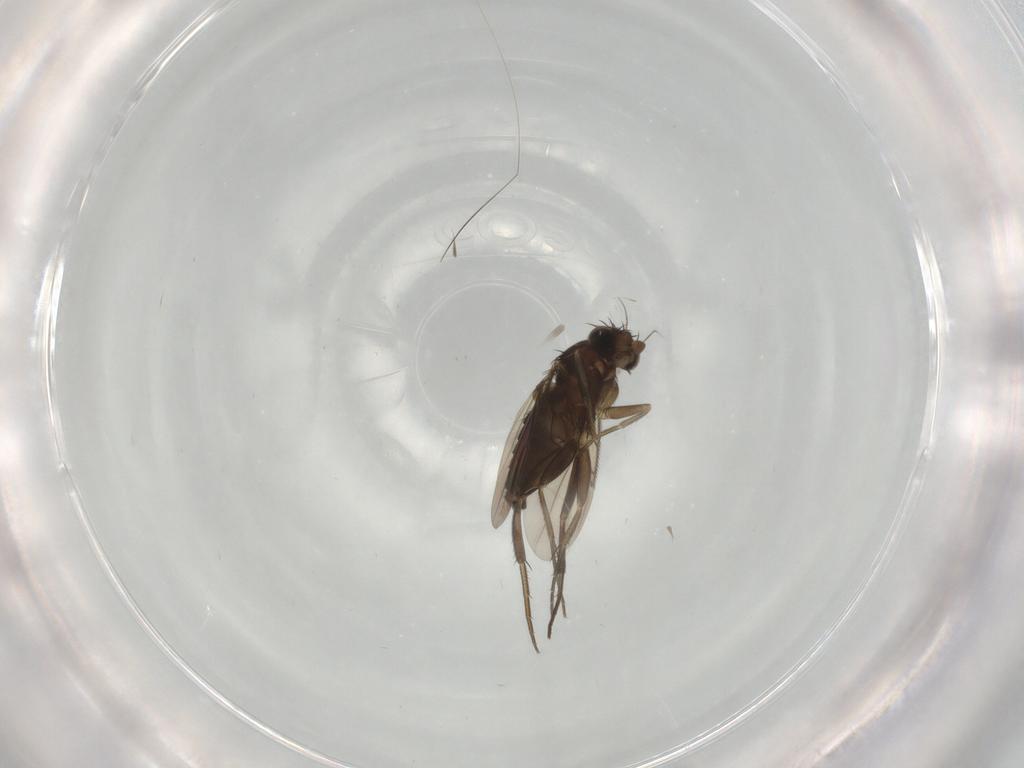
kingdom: Animalia
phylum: Arthropoda
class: Insecta
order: Diptera
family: Phoridae
